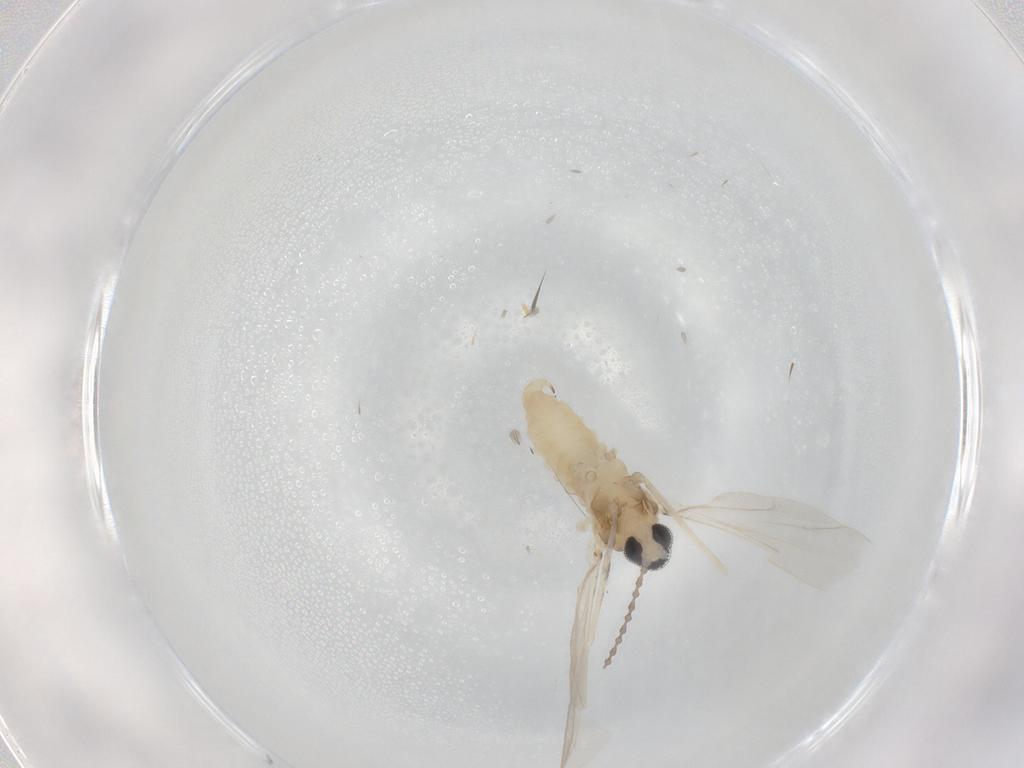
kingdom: Animalia
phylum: Arthropoda
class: Insecta
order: Diptera
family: Cecidomyiidae
